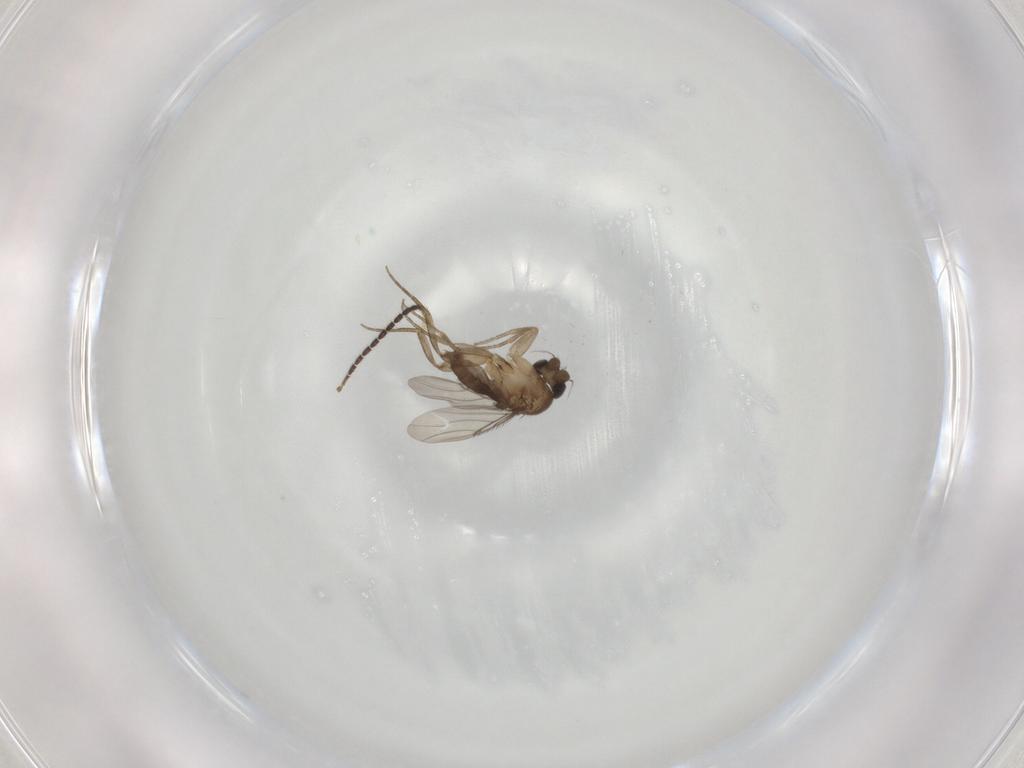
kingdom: Animalia
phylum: Arthropoda
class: Insecta
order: Diptera
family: Phoridae
